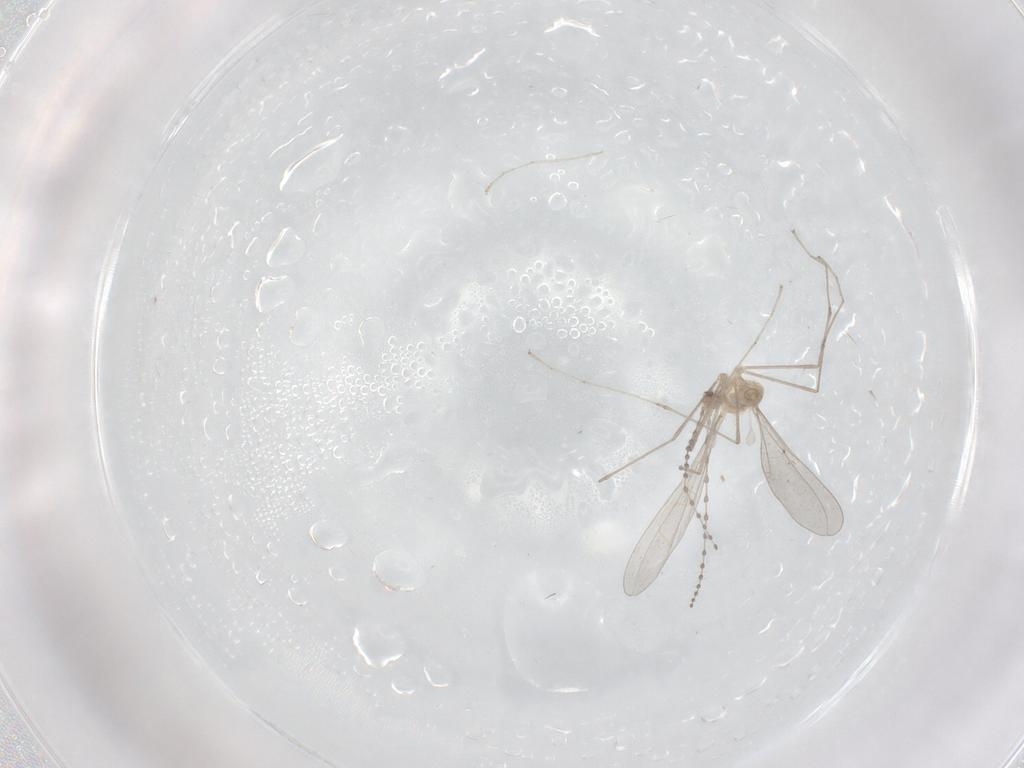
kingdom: Animalia
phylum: Arthropoda
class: Insecta
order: Diptera
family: Cecidomyiidae
